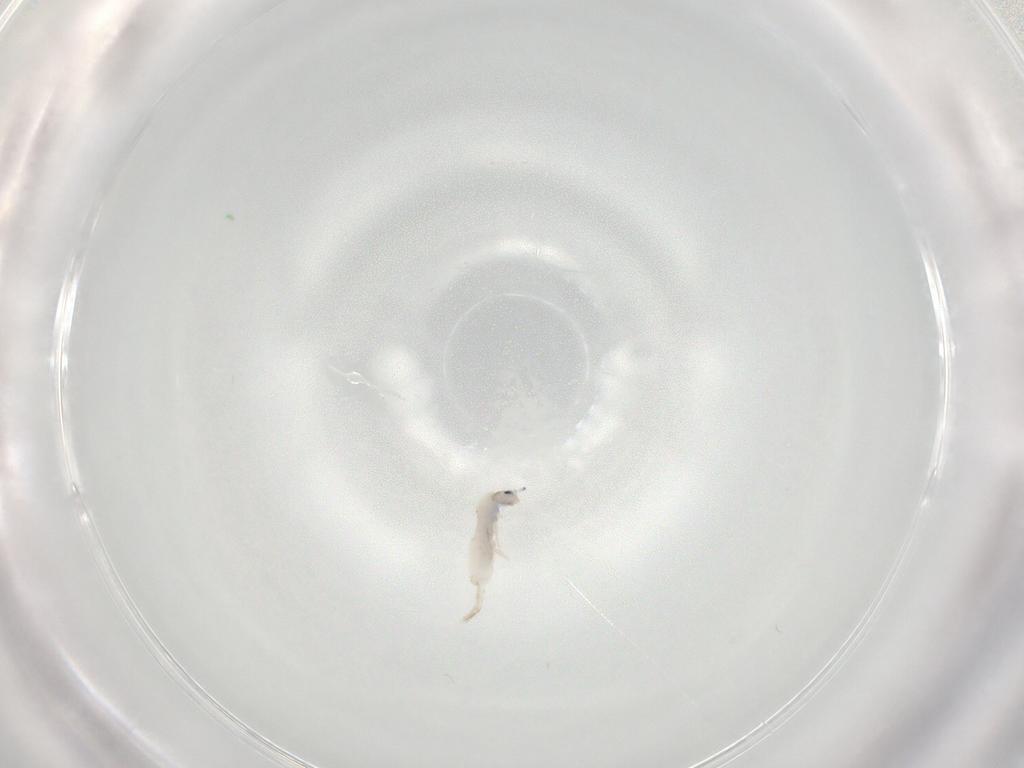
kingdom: Animalia
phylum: Arthropoda
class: Collembola
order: Entomobryomorpha
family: Entomobryidae
